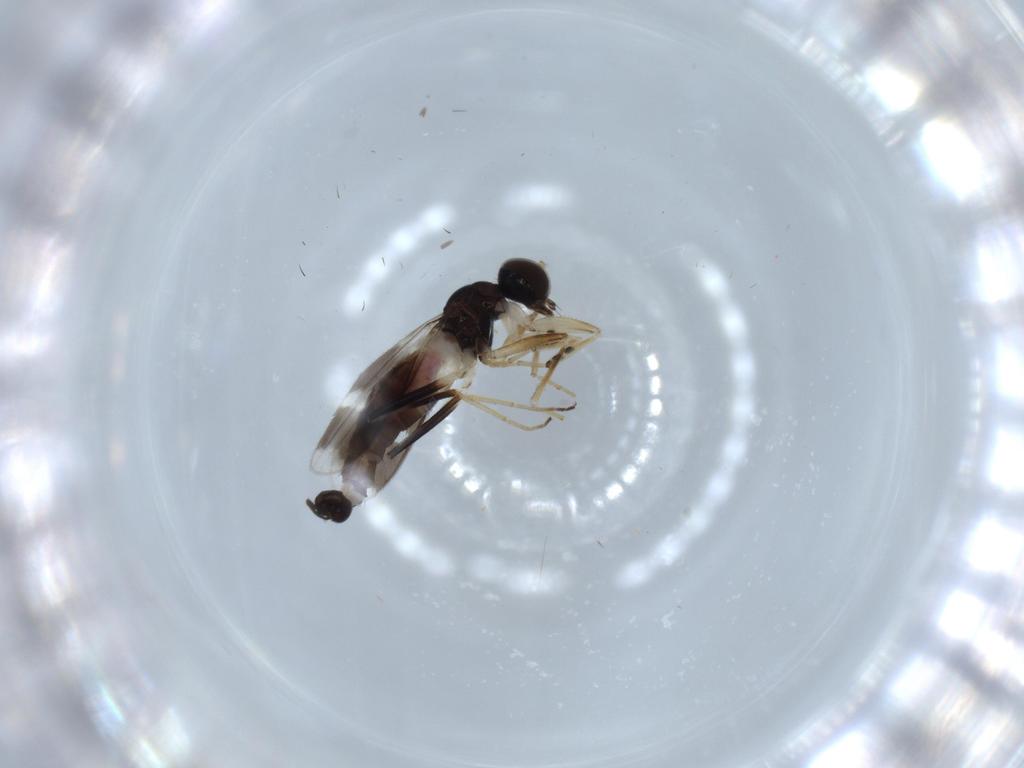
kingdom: Animalia
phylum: Arthropoda
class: Insecta
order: Diptera
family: Hybotidae
